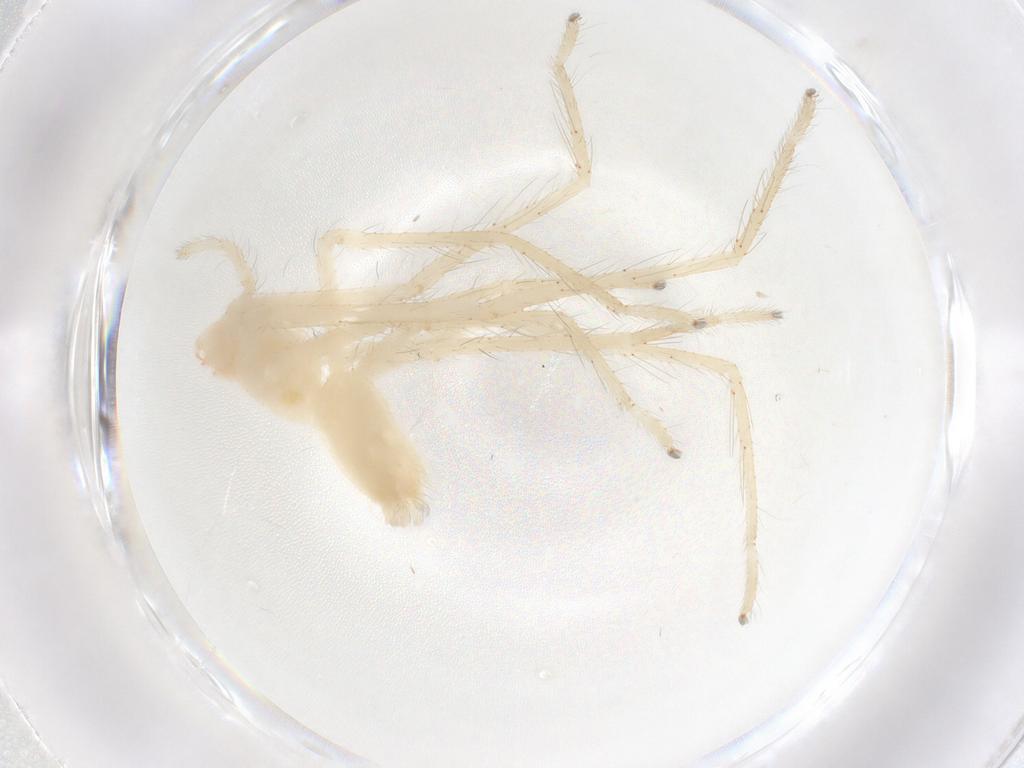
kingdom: Animalia
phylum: Arthropoda
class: Arachnida
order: Araneae
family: Sparassidae
